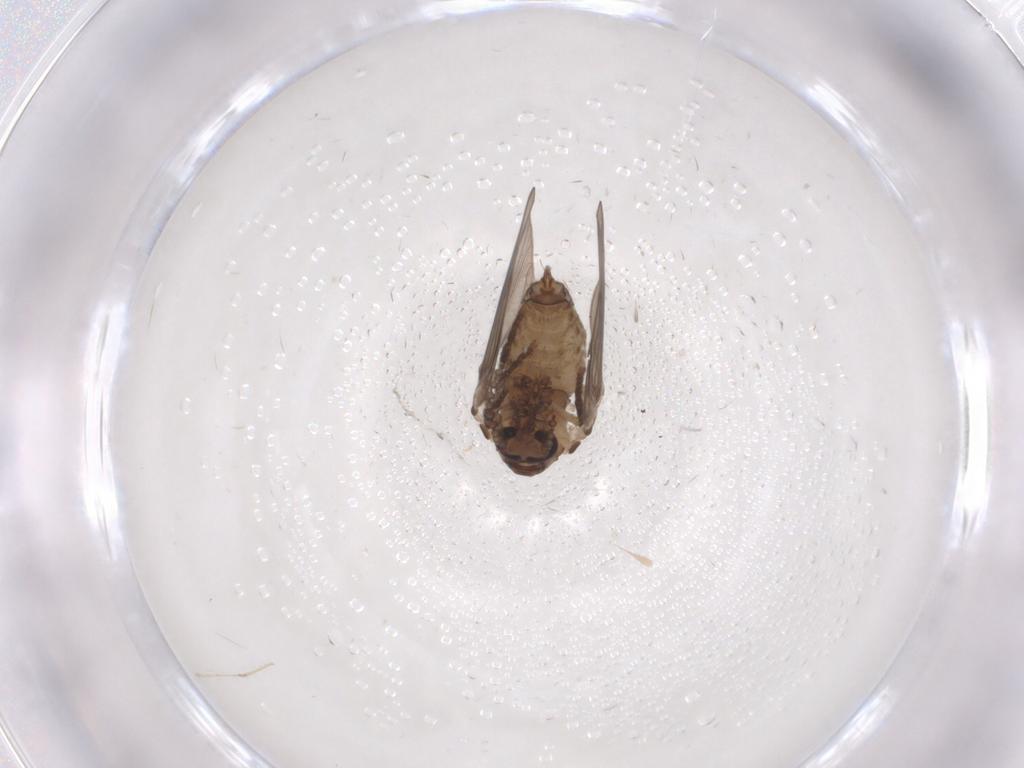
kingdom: Animalia
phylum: Arthropoda
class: Insecta
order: Diptera
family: Psychodidae
